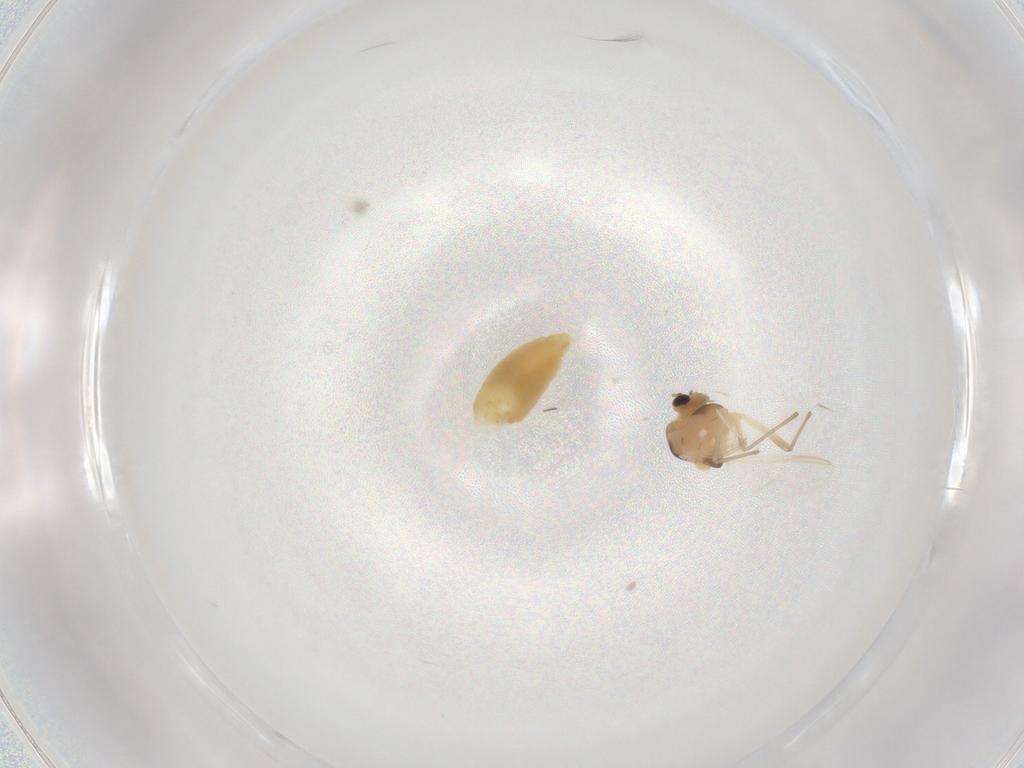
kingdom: Animalia
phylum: Arthropoda
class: Insecta
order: Diptera
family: Chironomidae
